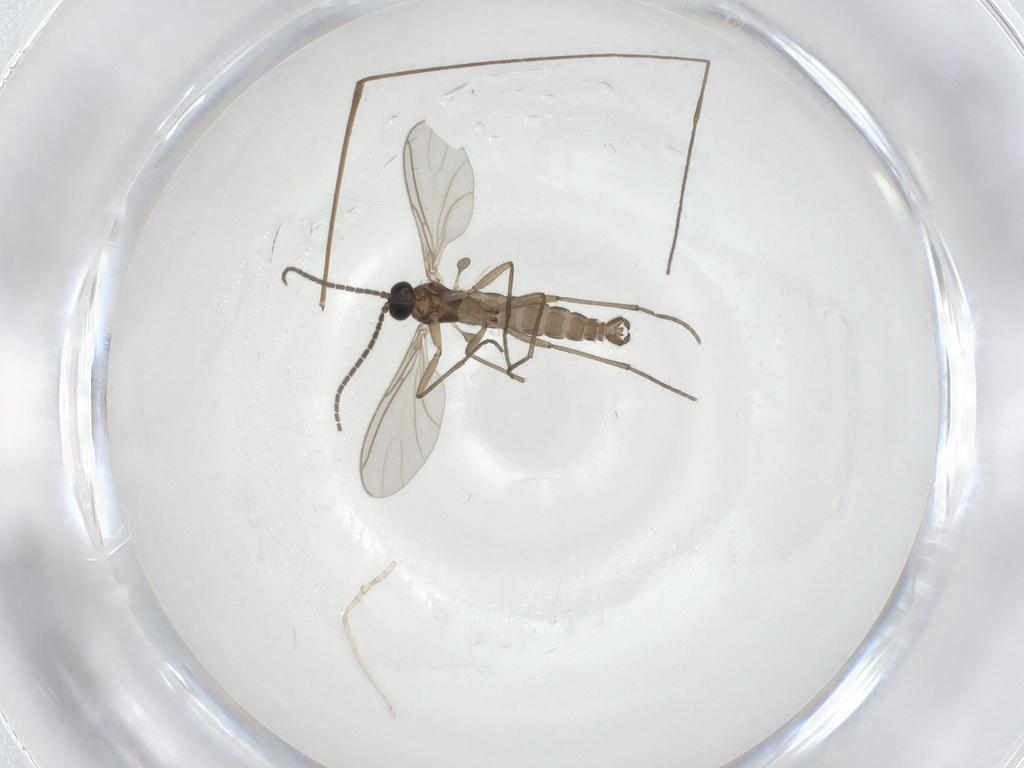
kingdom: Animalia
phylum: Arthropoda
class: Insecta
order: Diptera
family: Sciaridae
